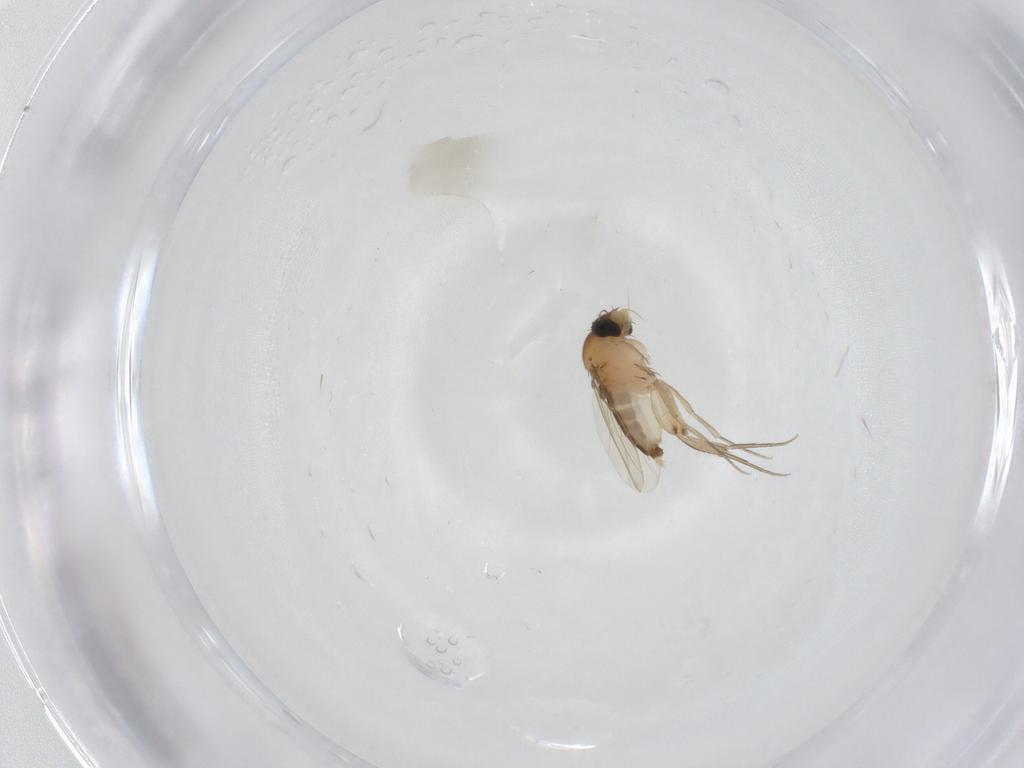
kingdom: Animalia
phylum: Arthropoda
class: Insecta
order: Diptera
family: Phoridae
